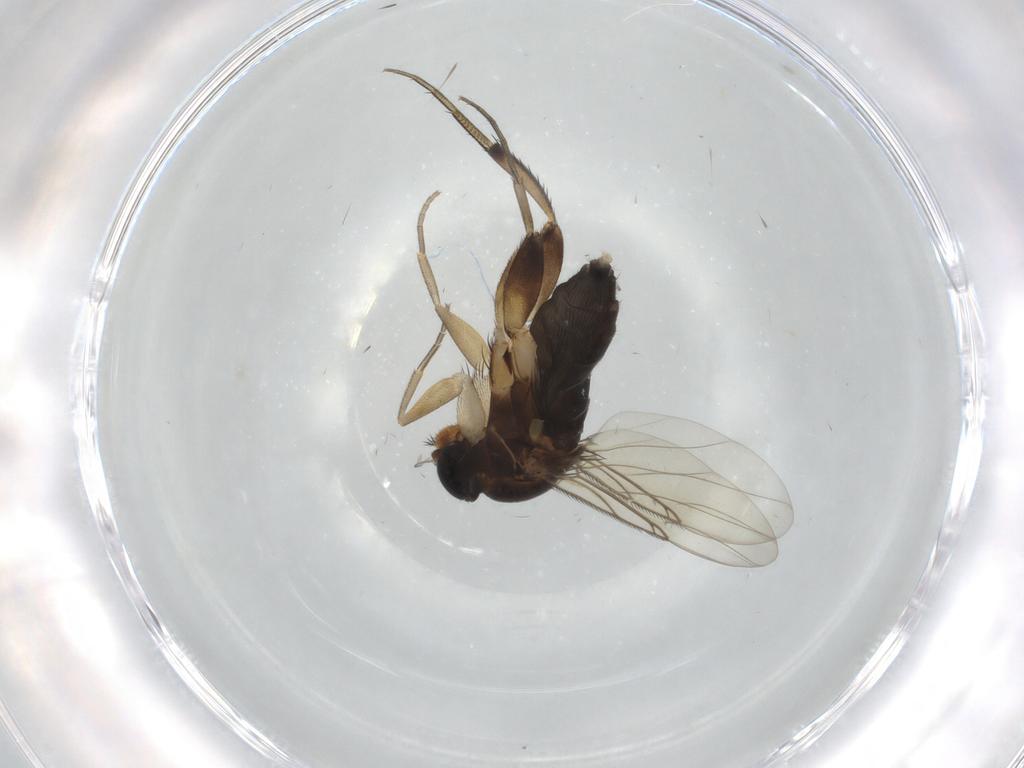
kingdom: Animalia
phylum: Arthropoda
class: Insecta
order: Diptera
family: Phoridae
